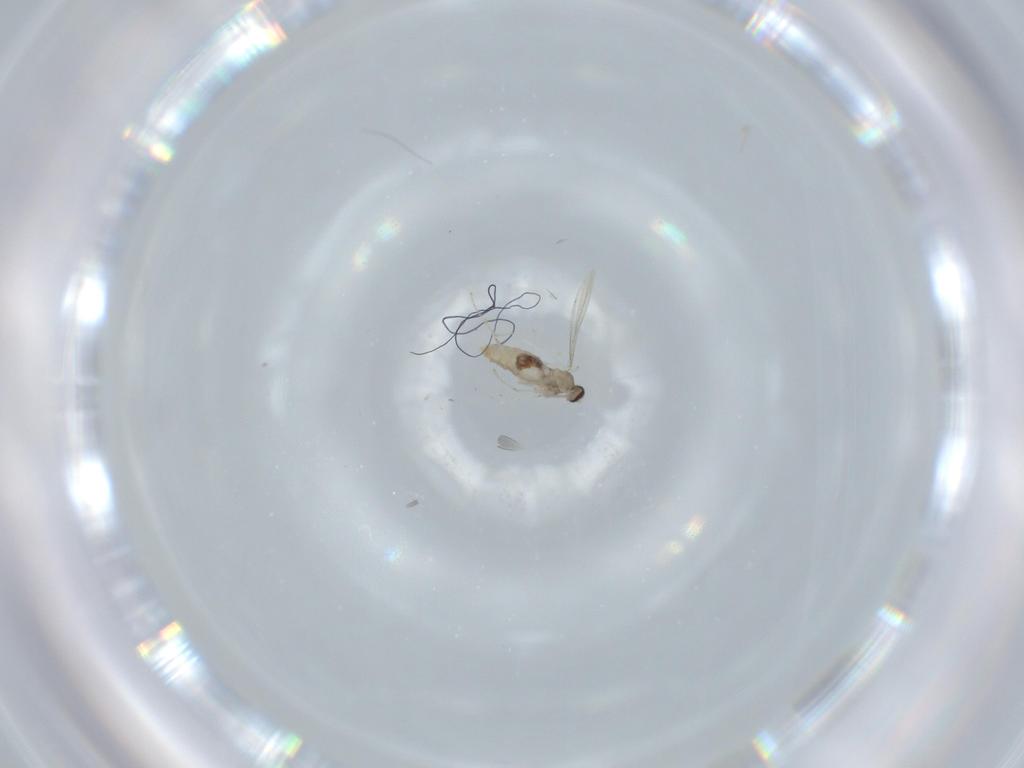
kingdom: Animalia
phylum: Arthropoda
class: Insecta
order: Diptera
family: Cecidomyiidae
